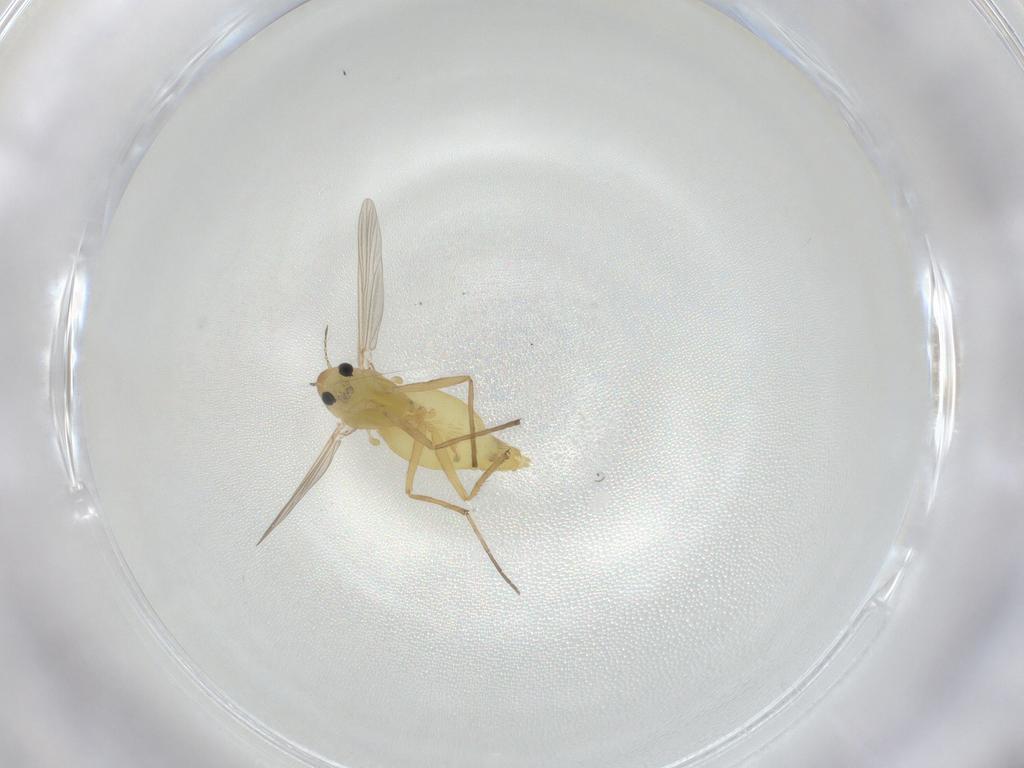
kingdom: Animalia
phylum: Arthropoda
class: Insecta
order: Diptera
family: Chironomidae
